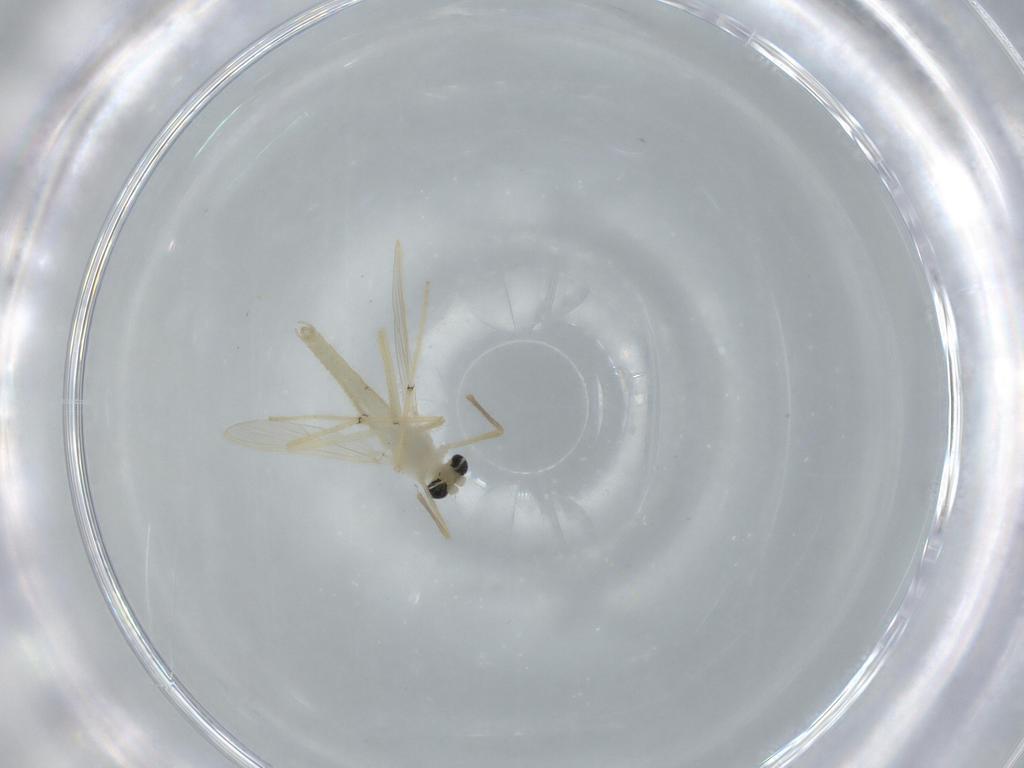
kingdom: Animalia
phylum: Arthropoda
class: Insecta
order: Diptera
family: Chironomidae
